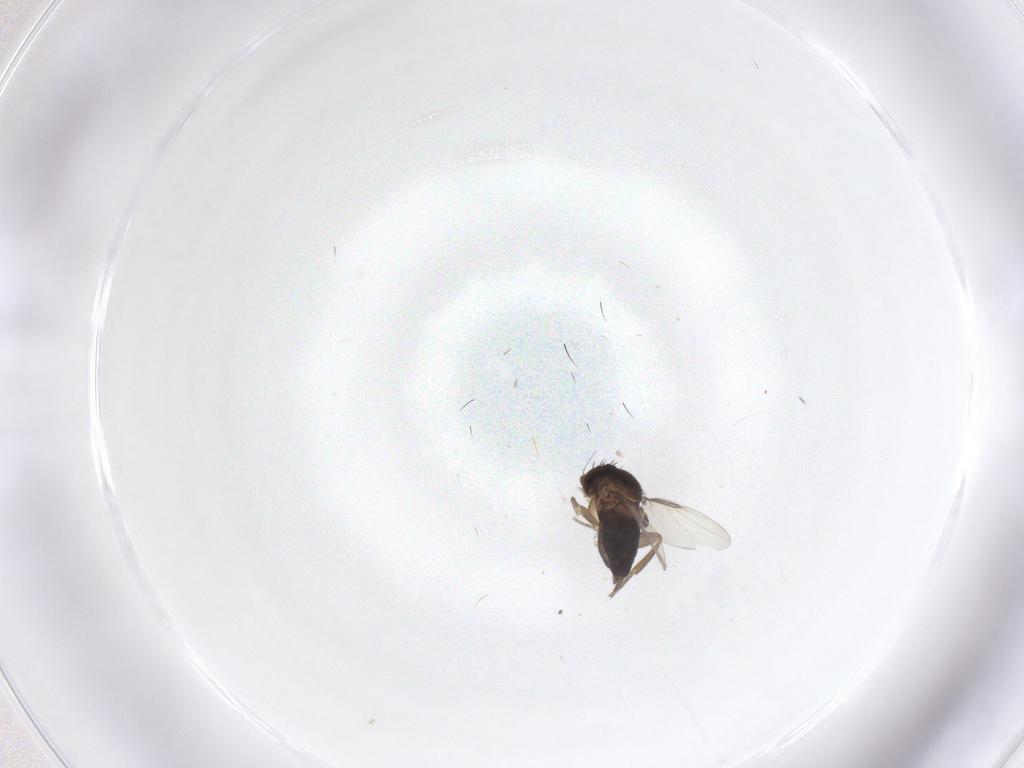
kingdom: Animalia
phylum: Arthropoda
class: Insecta
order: Diptera
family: Phoridae
